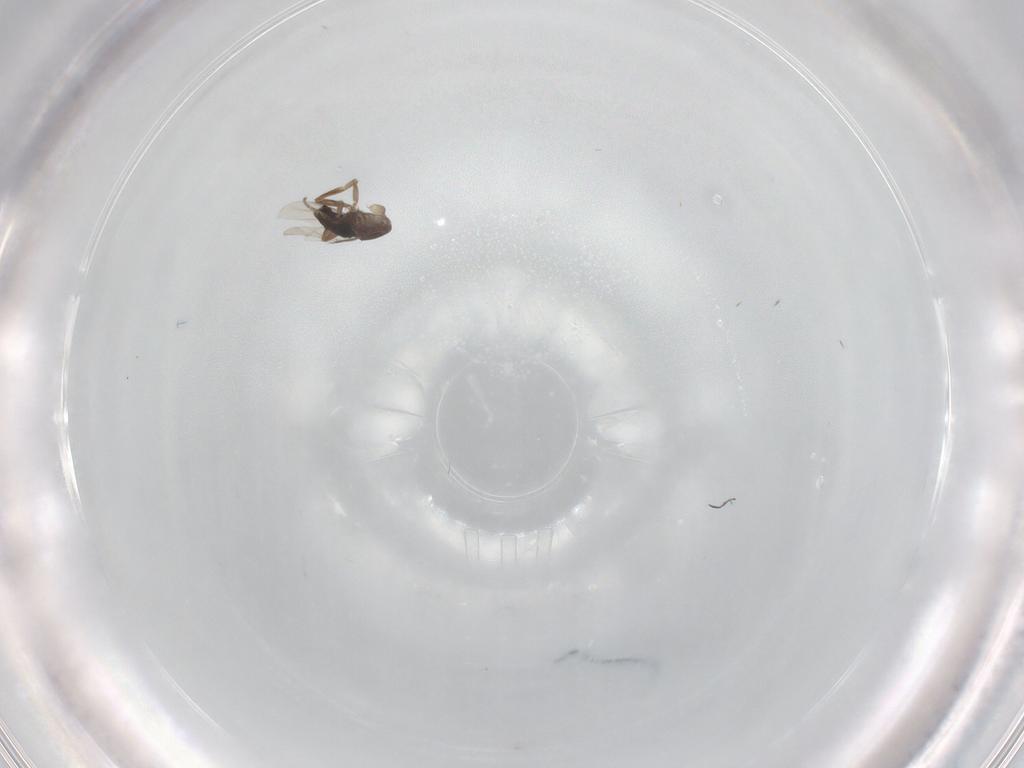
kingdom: Animalia
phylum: Arthropoda
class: Insecta
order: Diptera
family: Phoridae
